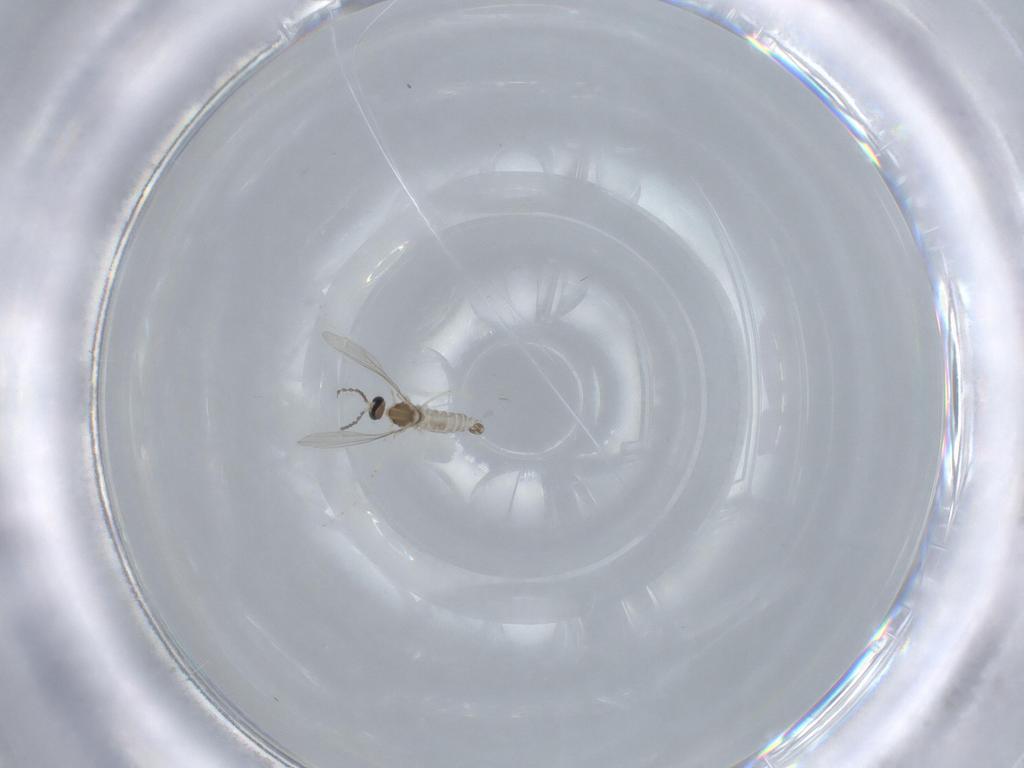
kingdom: Animalia
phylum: Arthropoda
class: Insecta
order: Diptera
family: Cecidomyiidae
